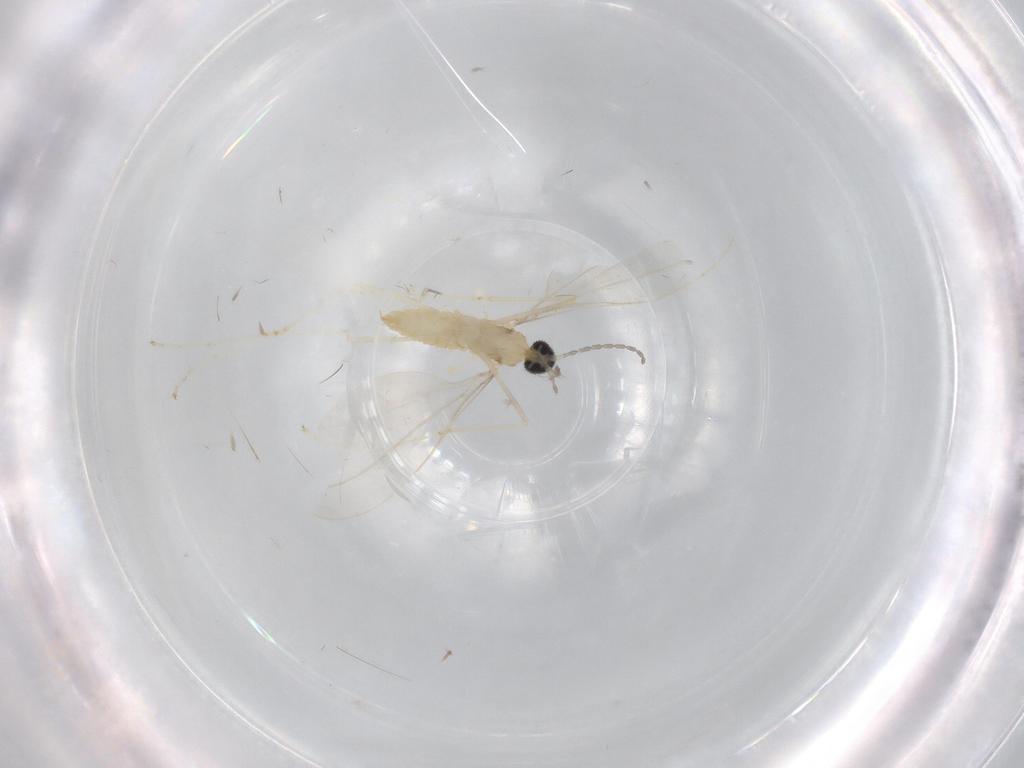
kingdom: Animalia
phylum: Arthropoda
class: Insecta
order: Diptera
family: Cecidomyiidae
